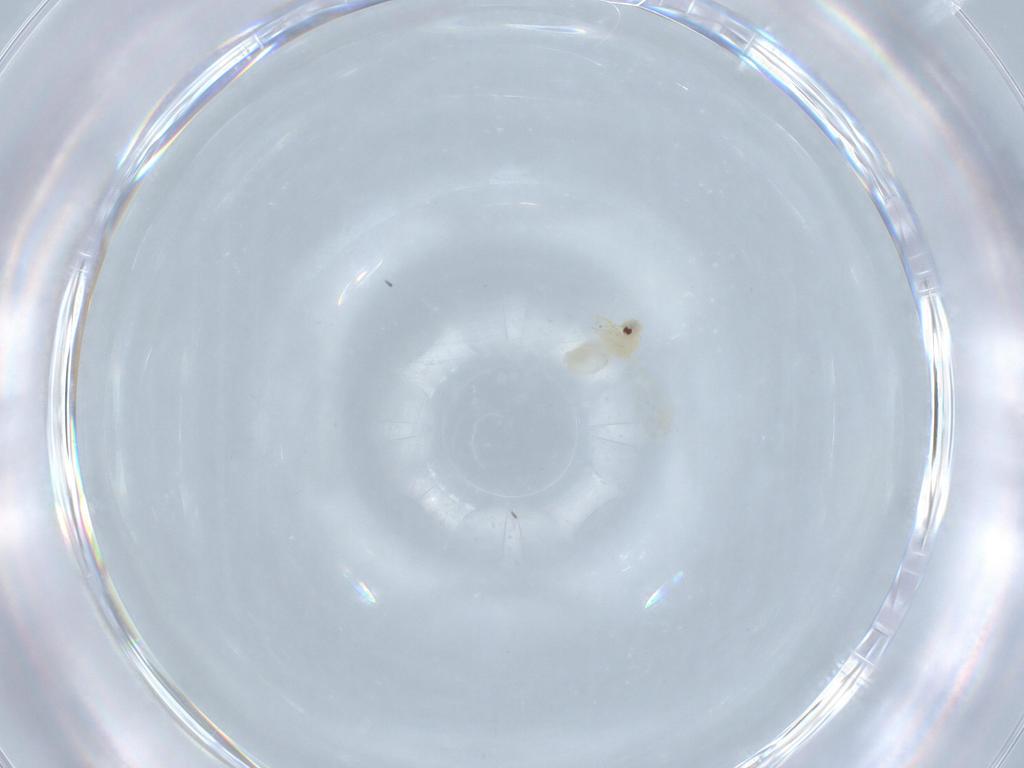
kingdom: Animalia
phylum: Arthropoda
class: Insecta
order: Hemiptera
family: Aleyrodidae
